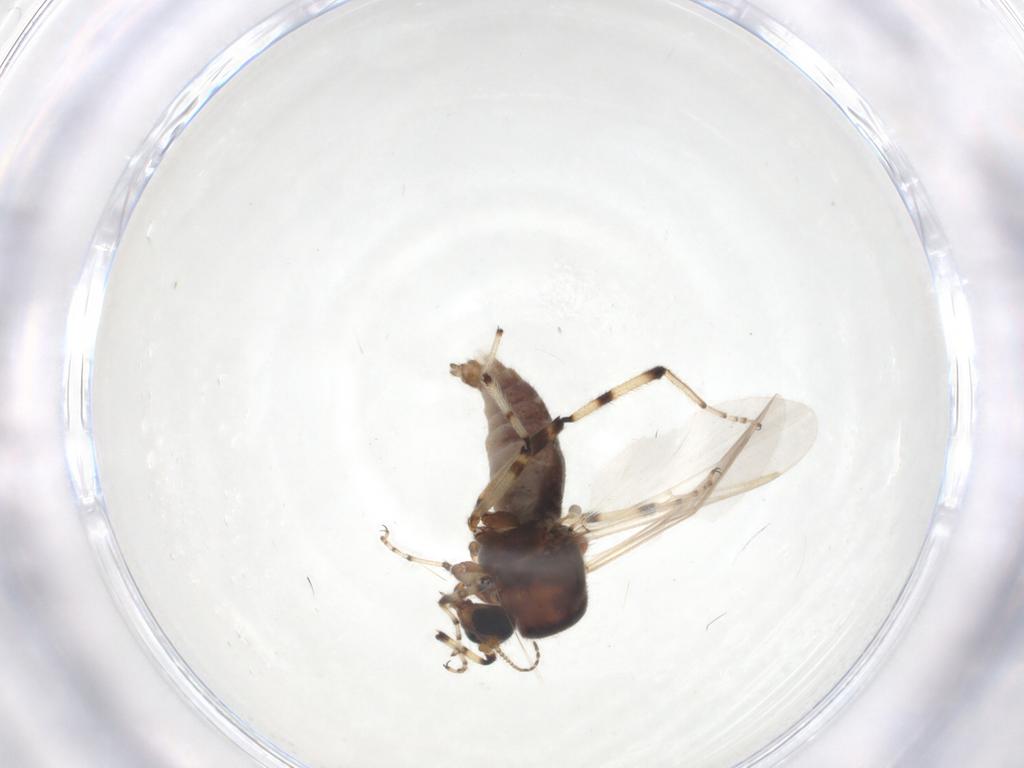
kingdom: Animalia
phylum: Arthropoda
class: Insecta
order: Diptera
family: Ceratopogonidae
